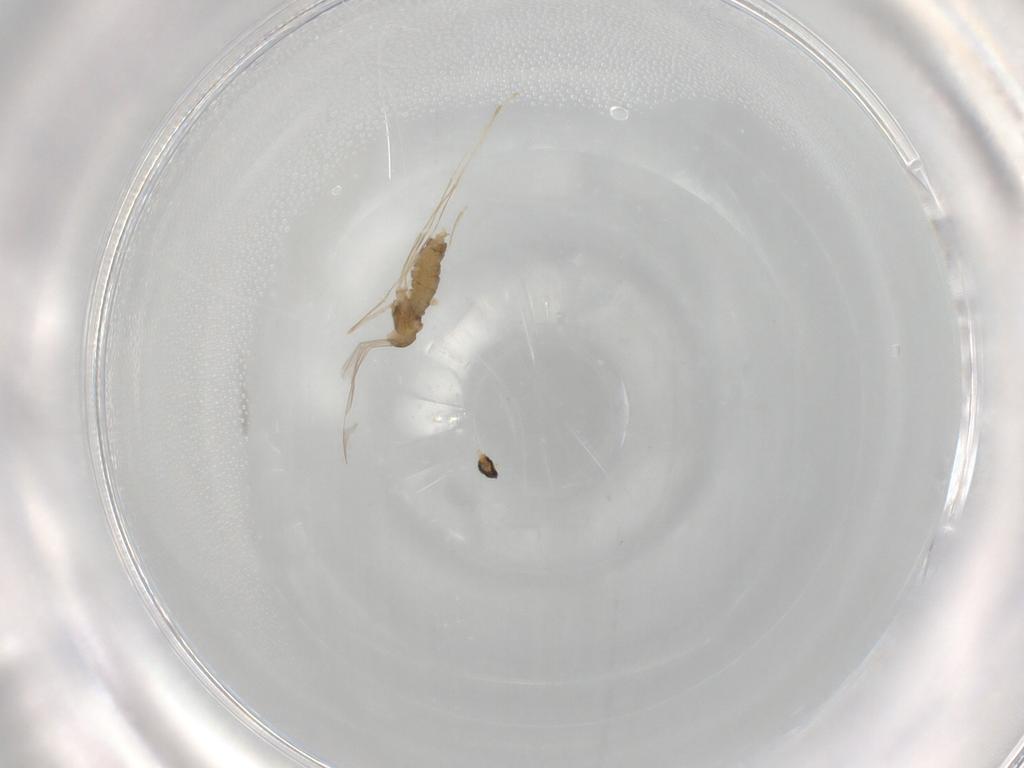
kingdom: Animalia
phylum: Arthropoda
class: Insecta
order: Diptera
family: Cecidomyiidae
